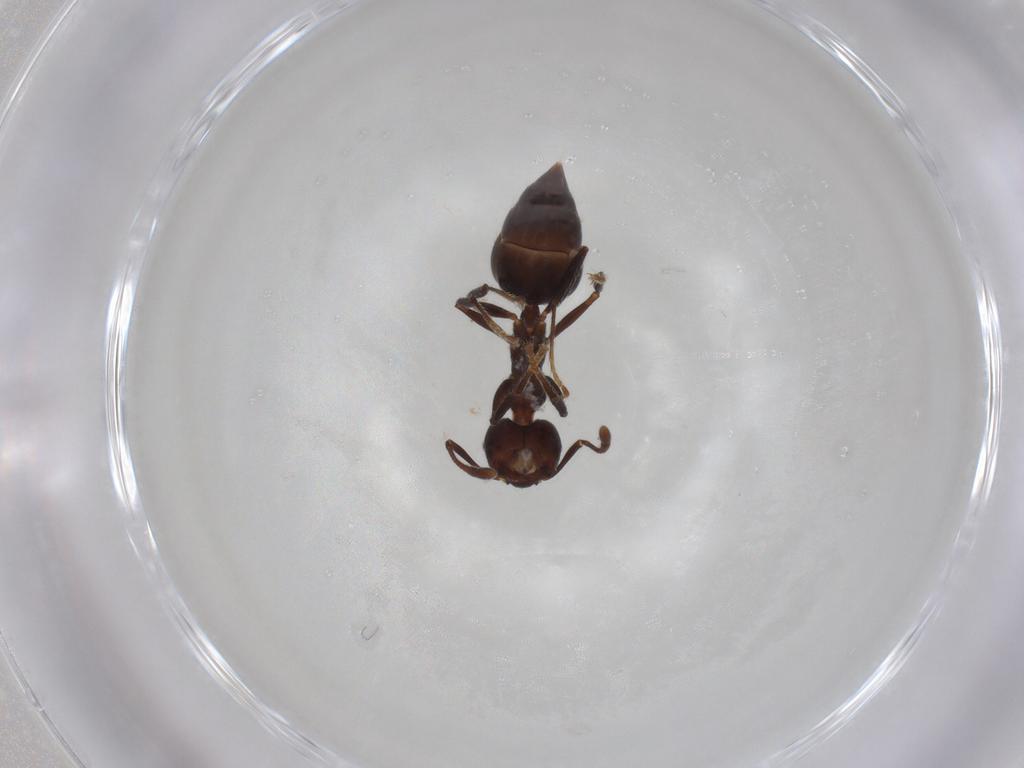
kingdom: Animalia
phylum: Arthropoda
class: Insecta
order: Hymenoptera
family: Formicidae
